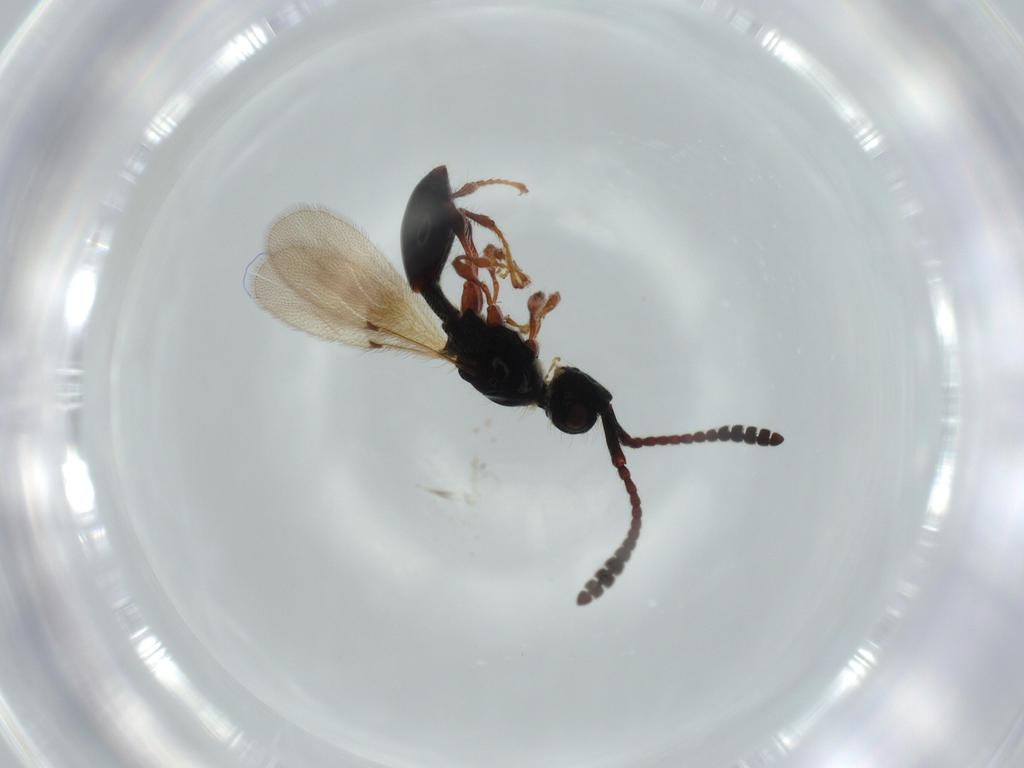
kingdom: Animalia
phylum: Arthropoda
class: Insecta
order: Hymenoptera
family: Diapriidae
